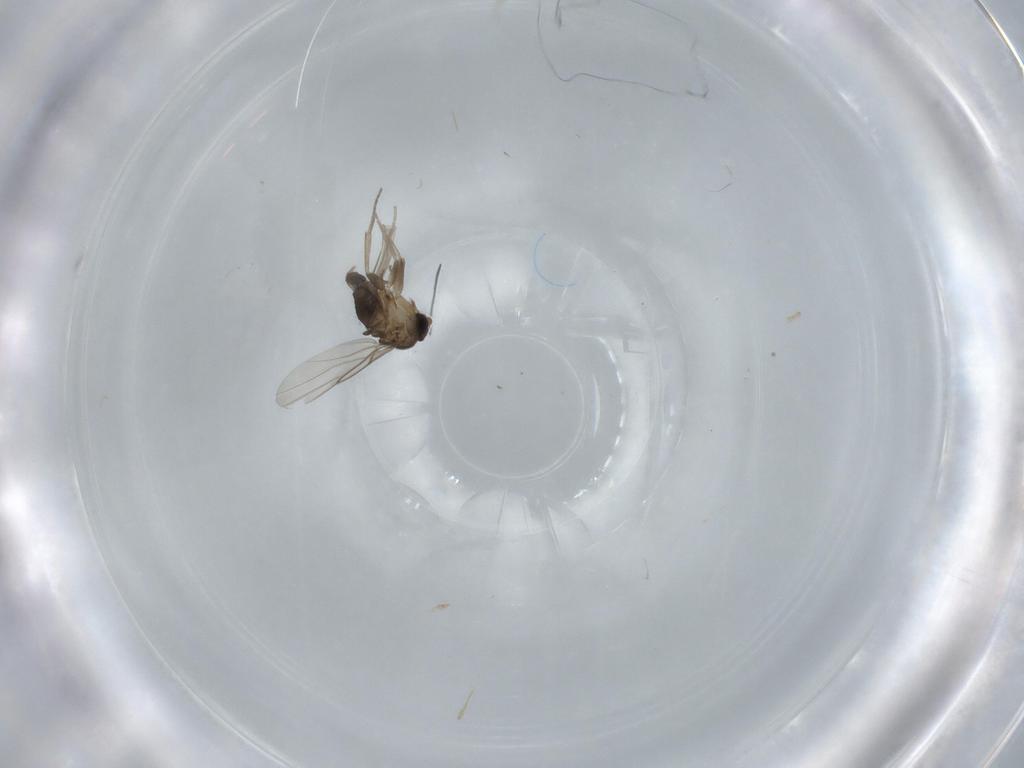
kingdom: Animalia
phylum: Arthropoda
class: Insecta
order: Diptera
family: Phoridae
